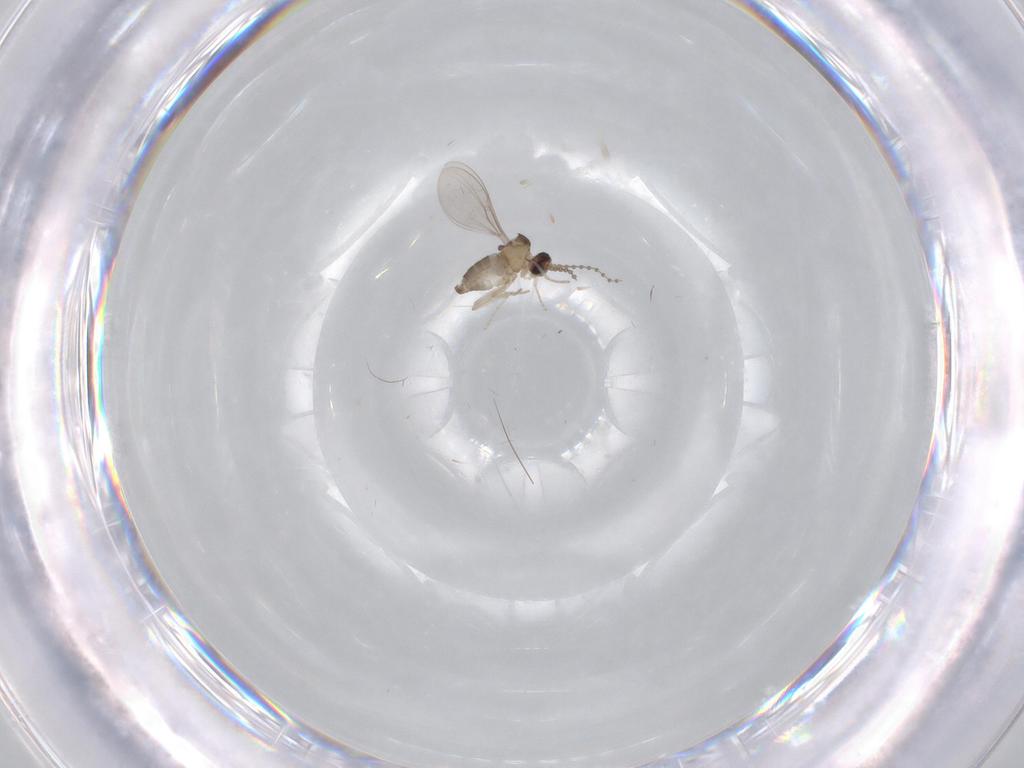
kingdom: Animalia
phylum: Arthropoda
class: Insecta
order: Diptera
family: Cecidomyiidae
